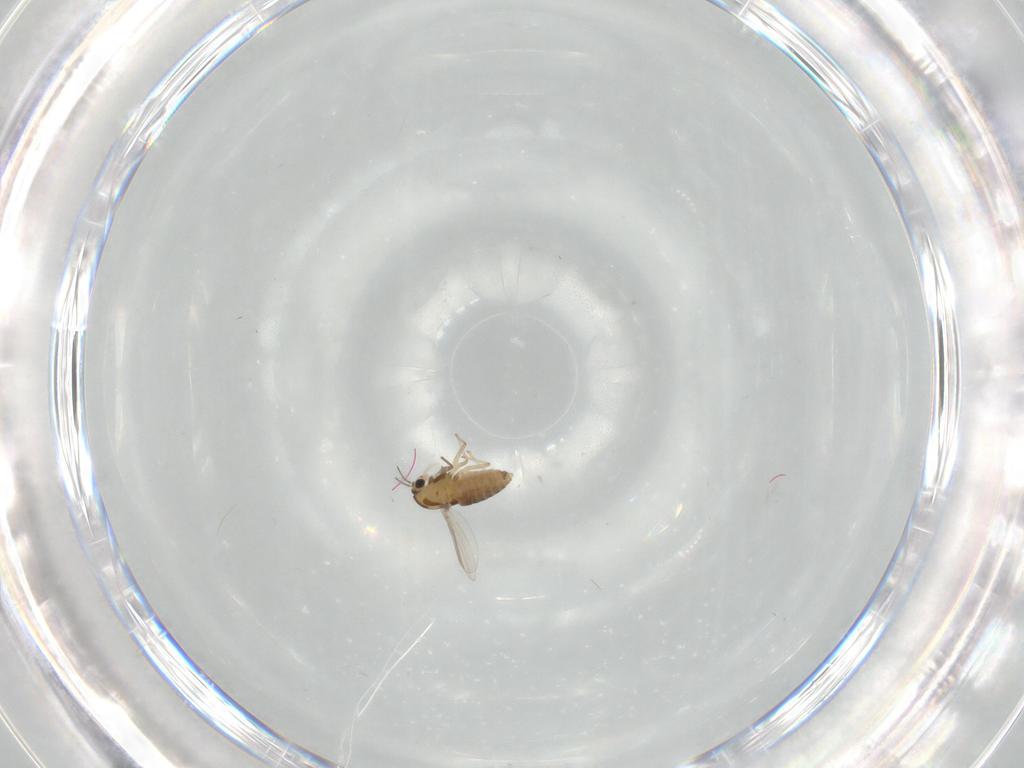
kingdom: Animalia
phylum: Arthropoda
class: Insecta
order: Diptera
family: Chironomidae
